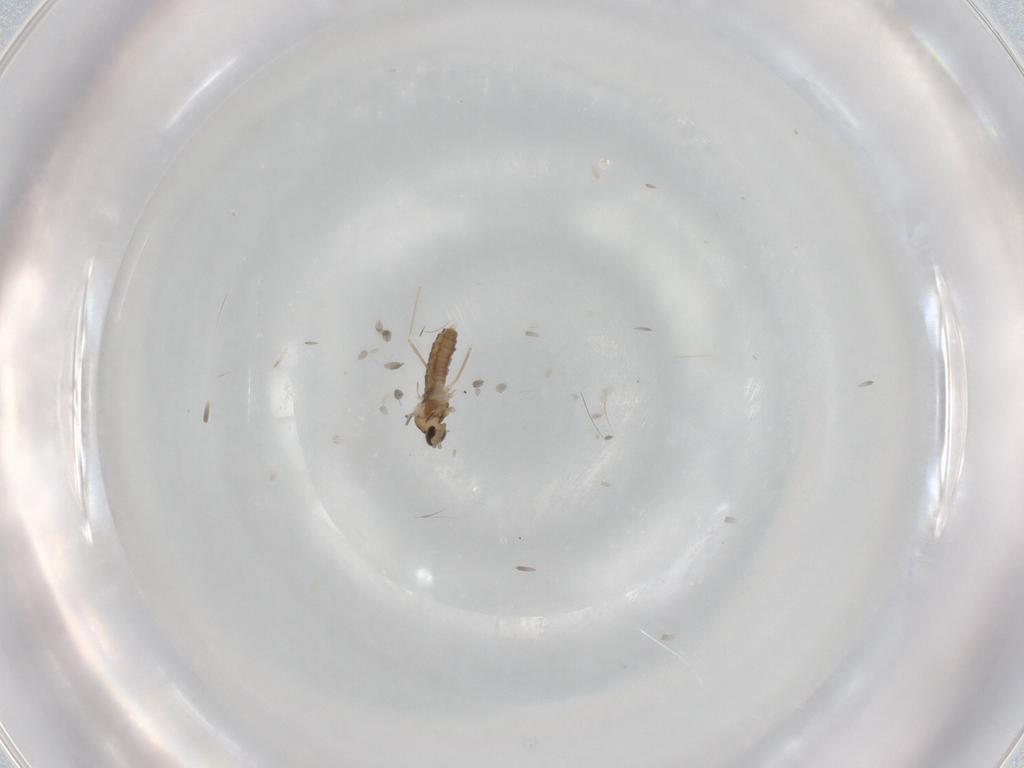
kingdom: Animalia
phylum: Arthropoda
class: Insecta
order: Diptera
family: Cecidomyiidae
